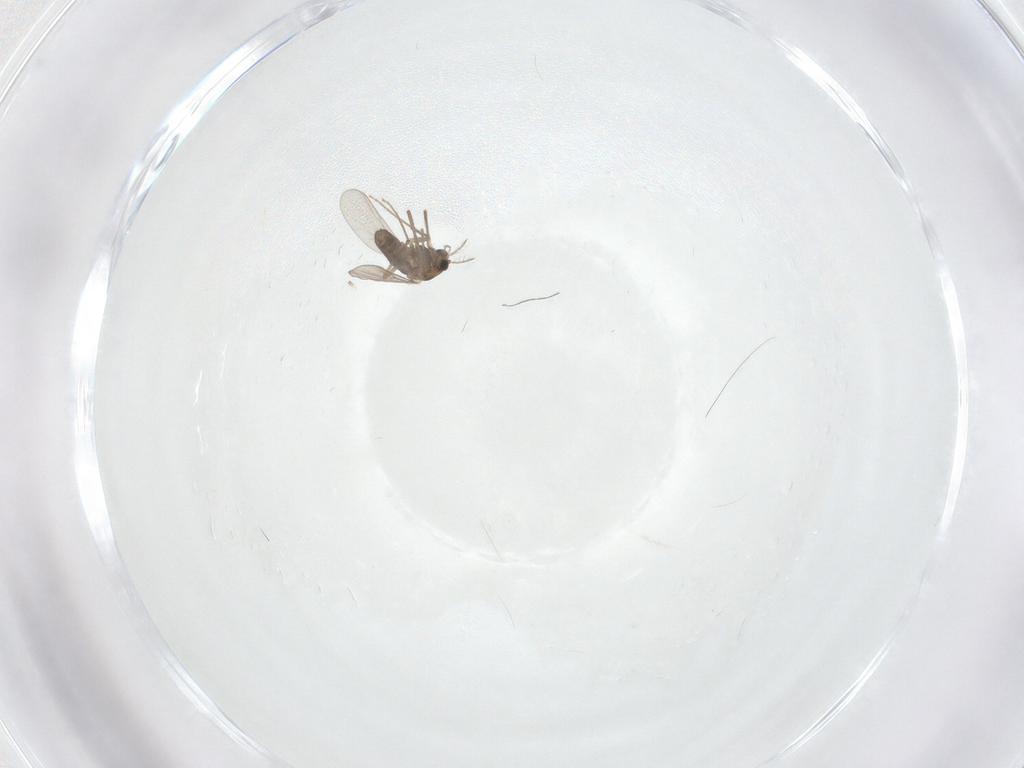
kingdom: Animalia
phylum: Arthropoda
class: Insecta
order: Diptera
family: Chironomidae
